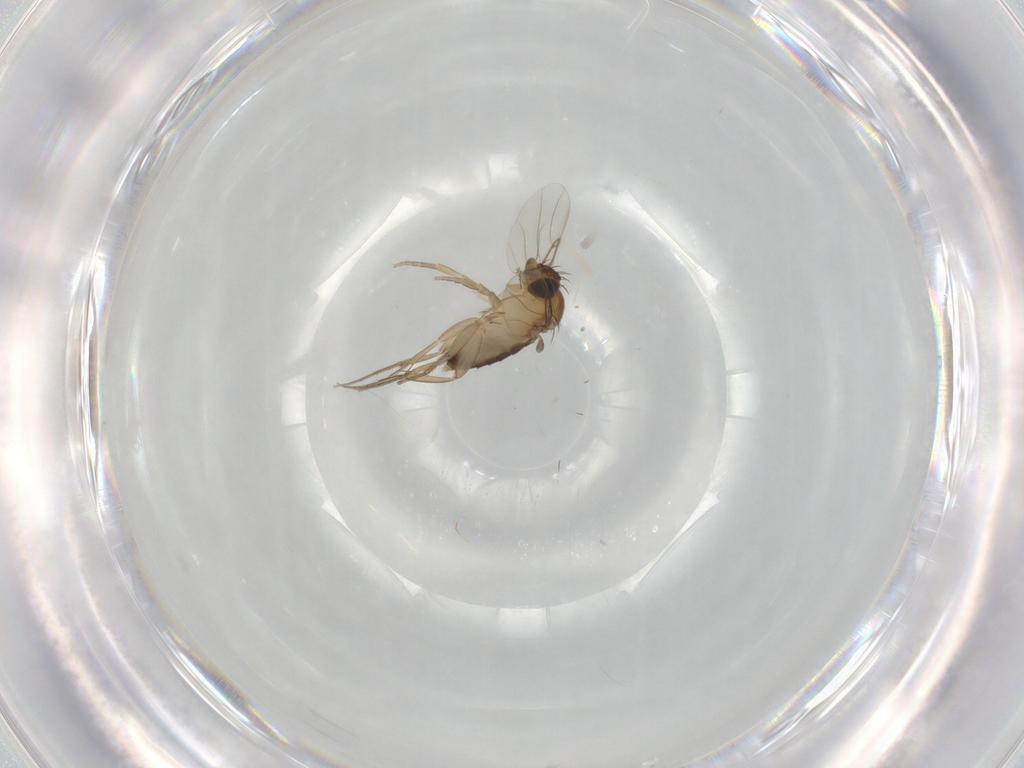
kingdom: Animalia
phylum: Arthropoda
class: Insecta
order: Diptera
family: Phoridae
